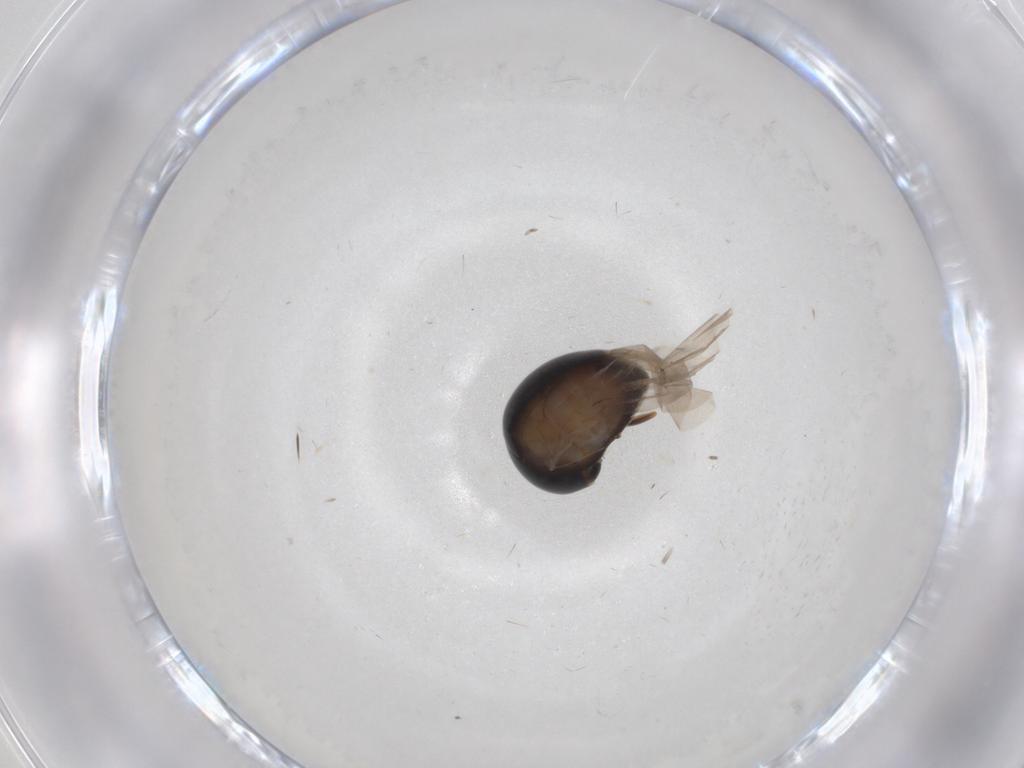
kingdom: Animalia
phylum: Arthropoda
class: Insecta
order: Coleoptera
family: Cybocephalidae
